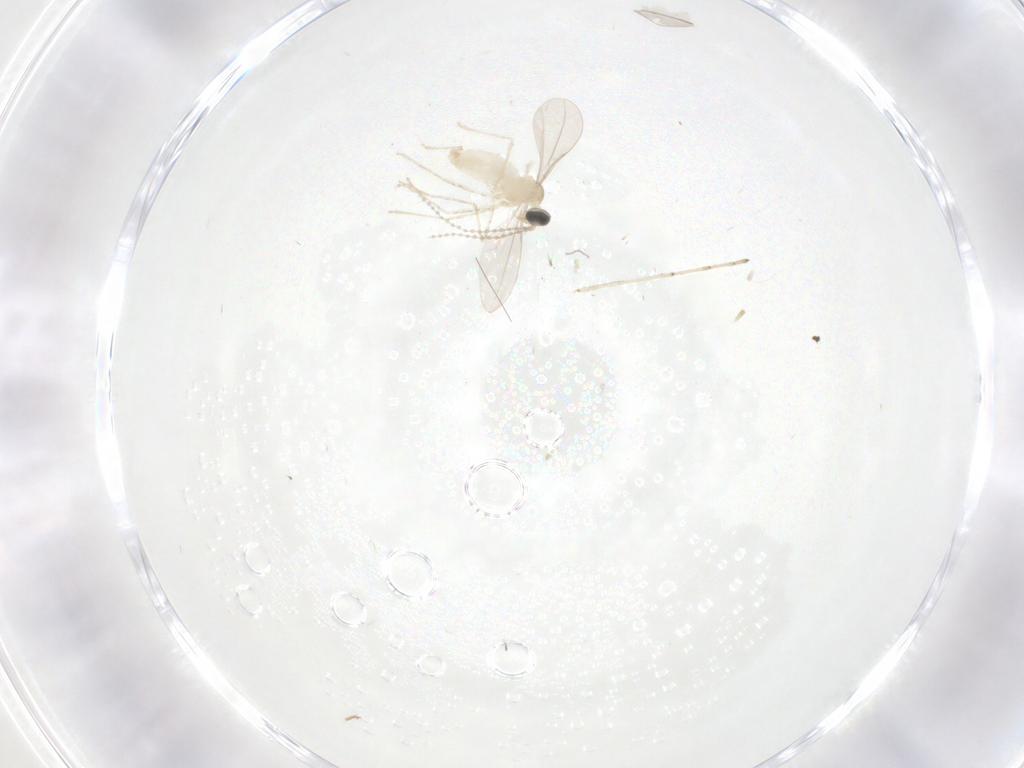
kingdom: Animalia
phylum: Arthropoda
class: Insecta
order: Diptera
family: Cecidomyiidae
